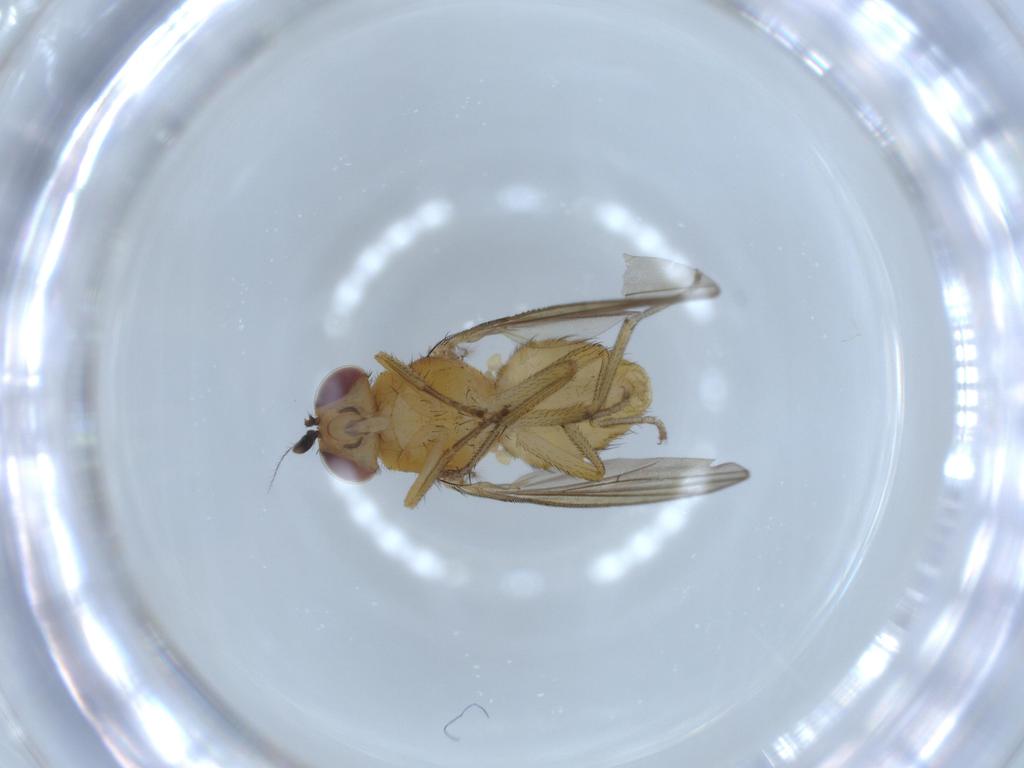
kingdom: Animalia
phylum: Arthropoda
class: Insecta
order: Diptera
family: Lauxaniidae
